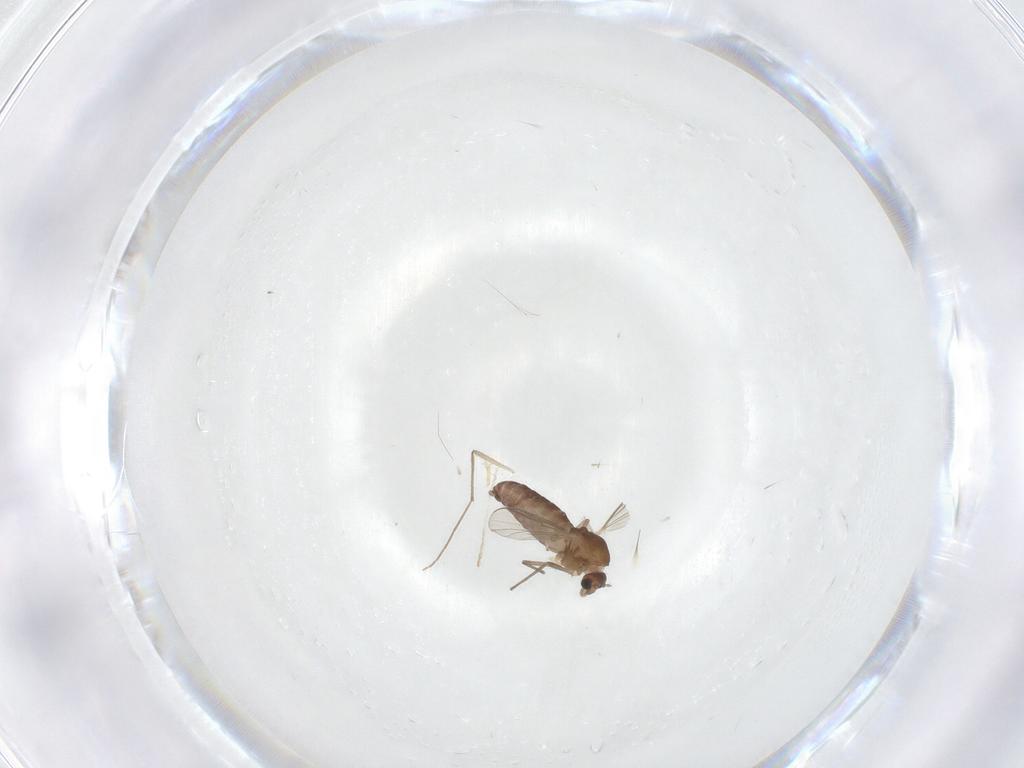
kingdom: Animalia
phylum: Arthropoda
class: Insecta
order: Diptera
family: Chironomidae
